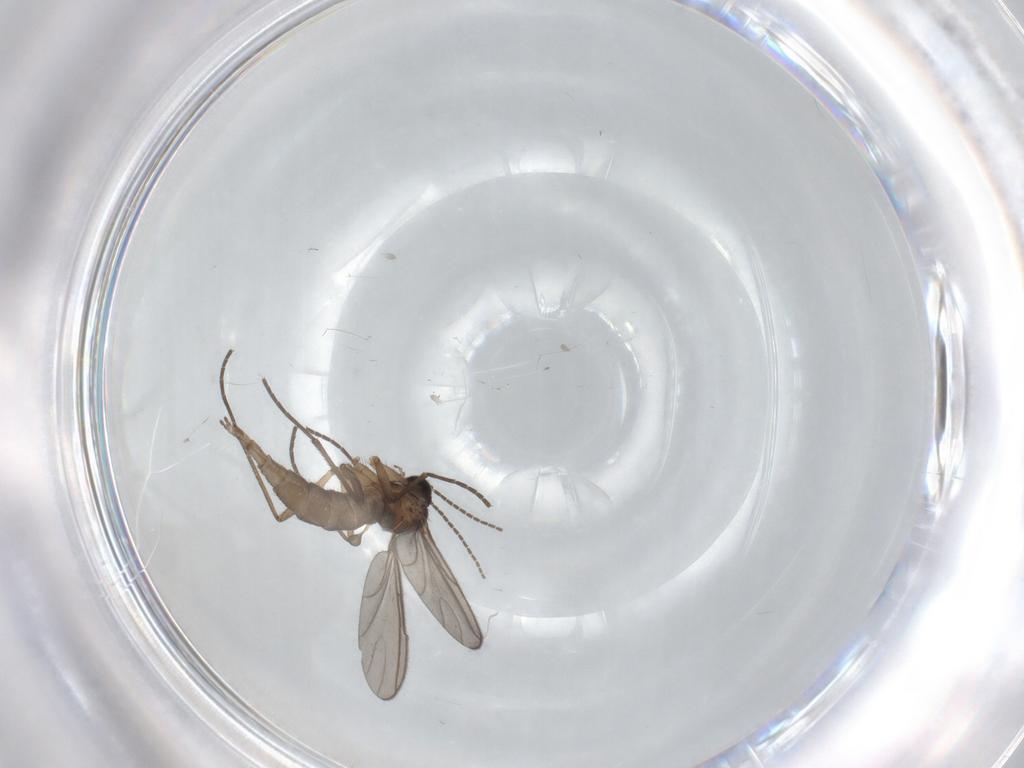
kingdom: Animalia
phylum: Arthropoda
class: Insecta
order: Diptera
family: Sciaridae
